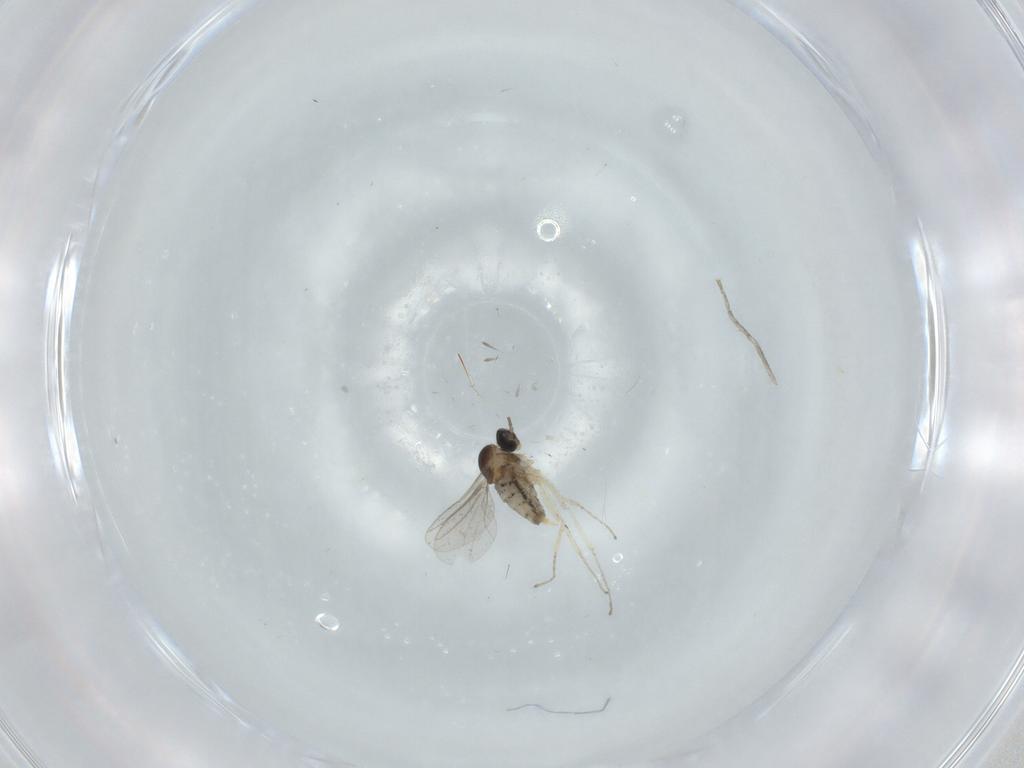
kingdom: Animalia
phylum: Arthropoda
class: Insecta
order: Diptera
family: Cecidomyiidae
